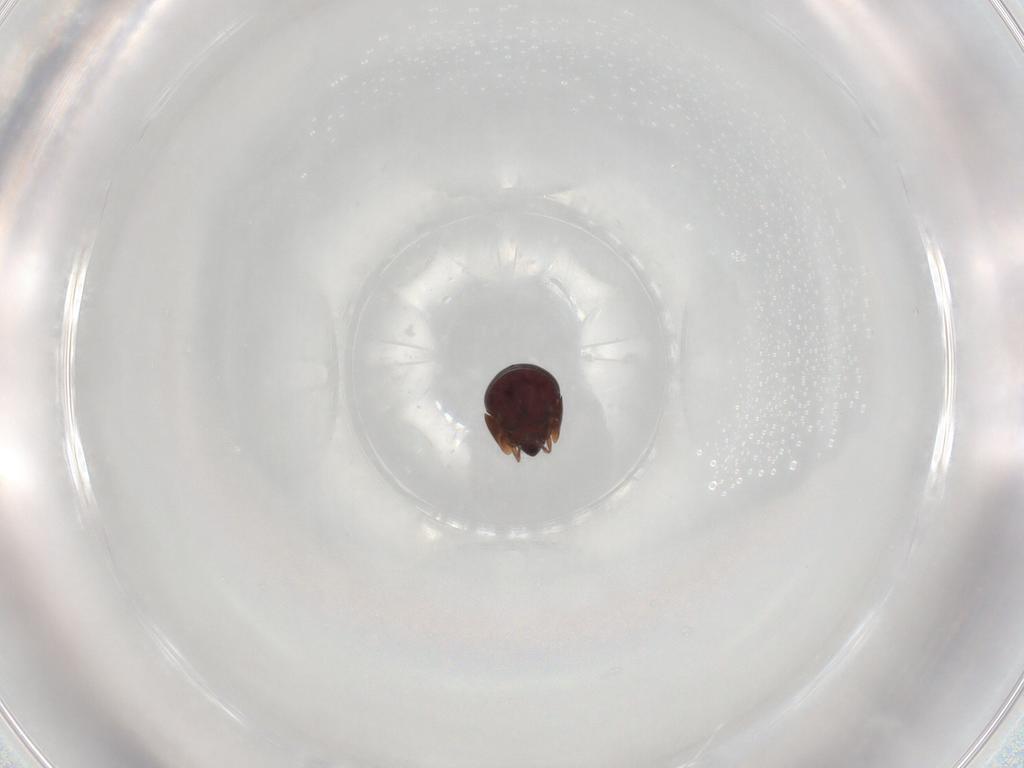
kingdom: Animalia
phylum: Arthropoda
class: Arachnida
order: Sarcoptiformes
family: Galumnidae
